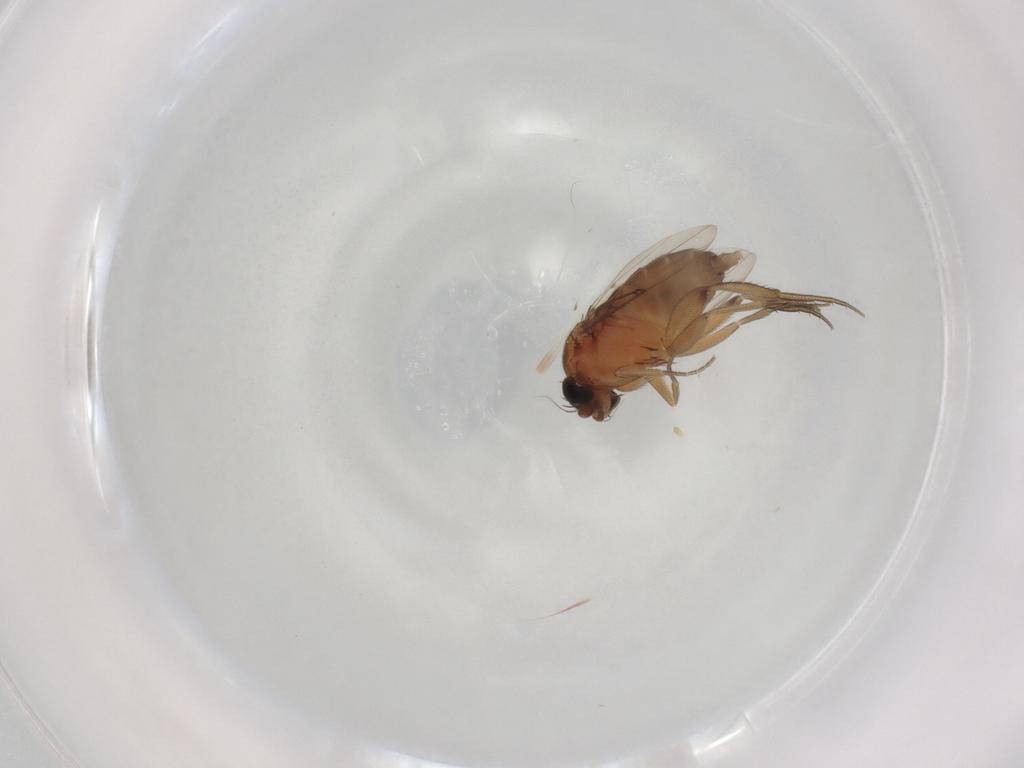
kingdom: Animalia
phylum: Arthropoda
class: Insecta
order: Diptera
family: Phoridae
